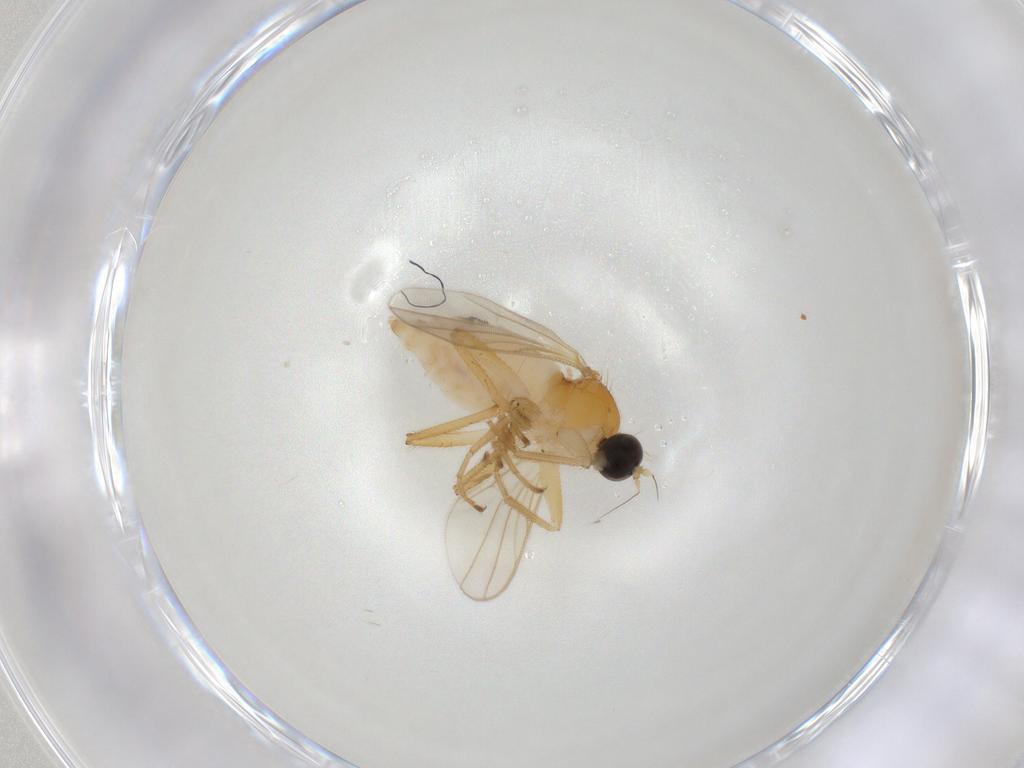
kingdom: Animalia
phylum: Arthropoda
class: Insecta
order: Diptera
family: Hybotidae
